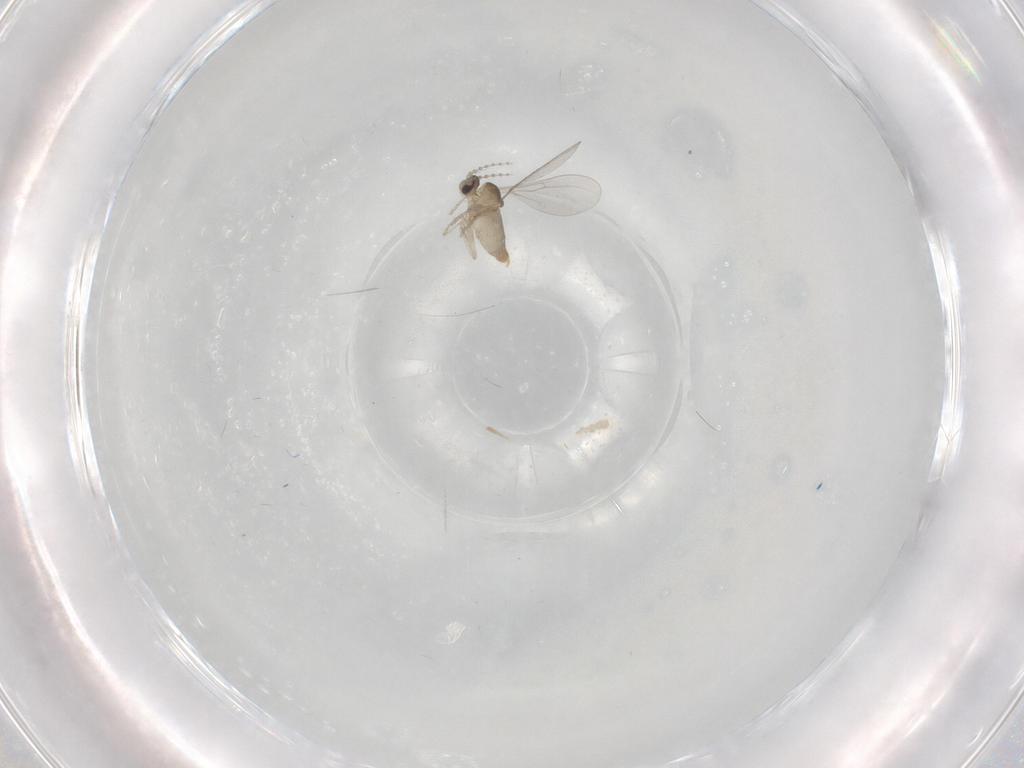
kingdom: Animalia
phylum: Arthropoda
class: Insecta
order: Diptera
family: Cecidomyiidae
